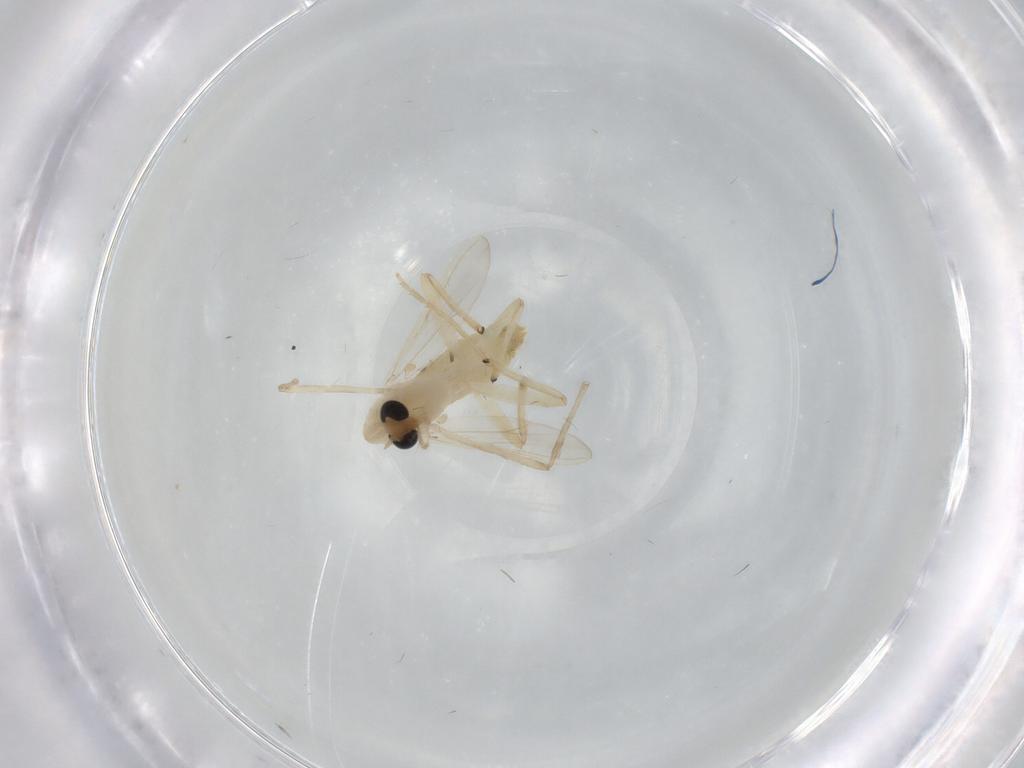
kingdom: Animalia
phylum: Arthropoda
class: Insecta
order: Diptera
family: Chironomidae
